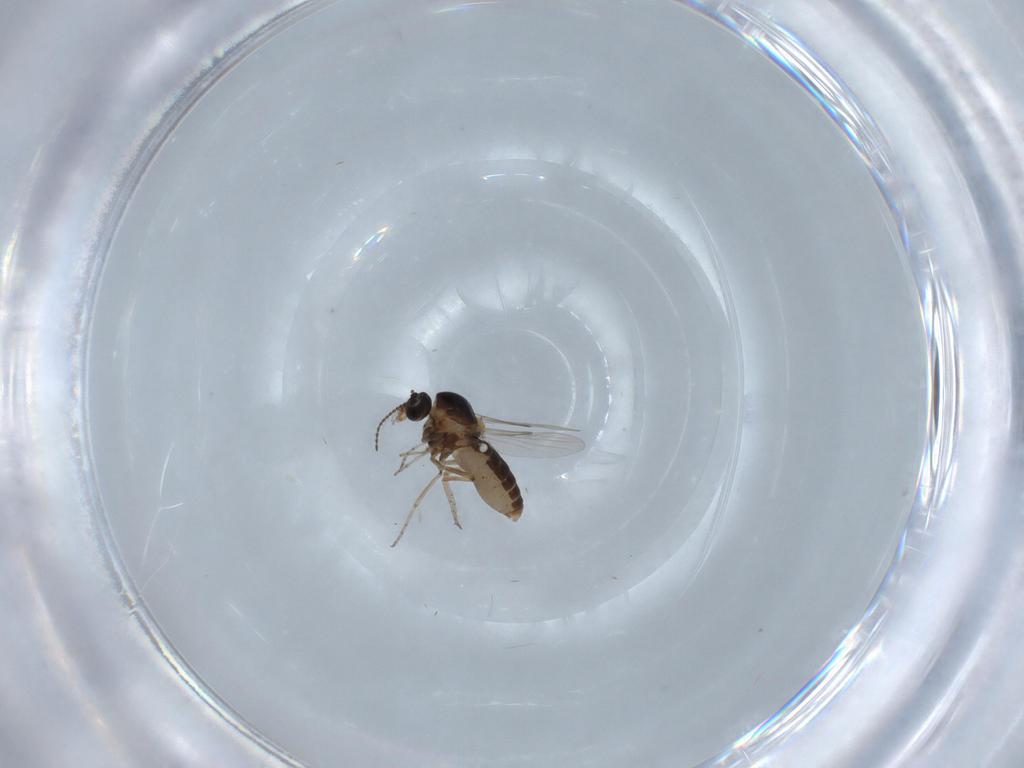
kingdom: Animalia
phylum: Arthropoda
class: Insecta
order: Diptera
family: Ceratopogonidae
